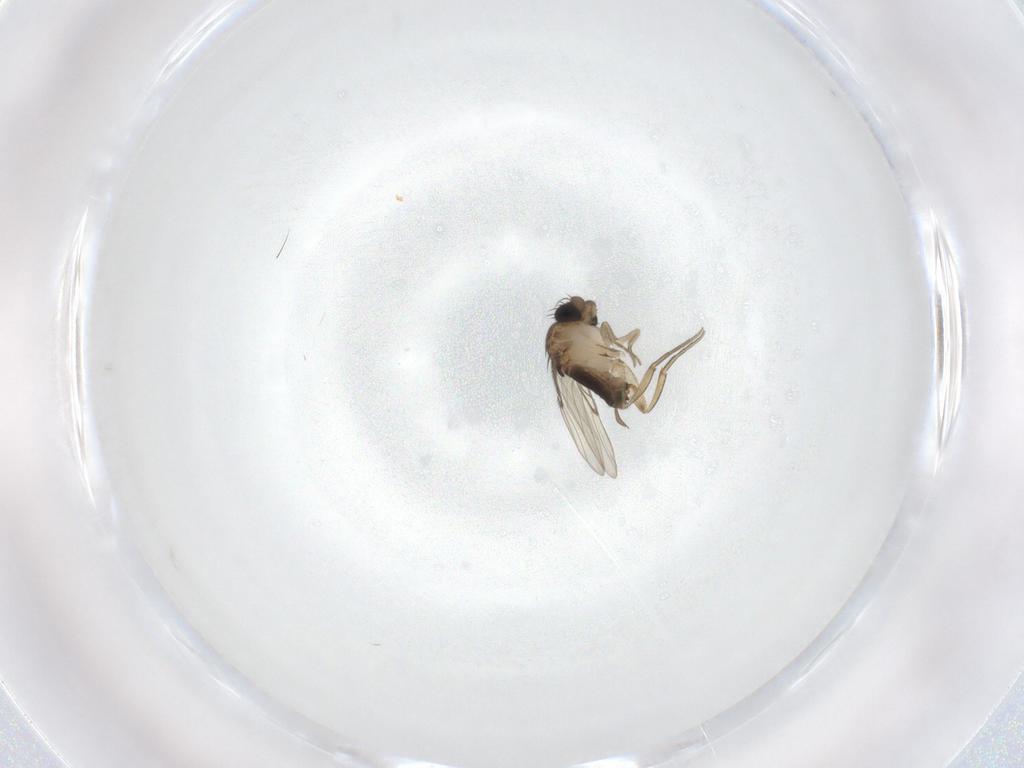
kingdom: Animalia
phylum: Arthropoda
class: Insecta
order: Diptera
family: Phoridae
